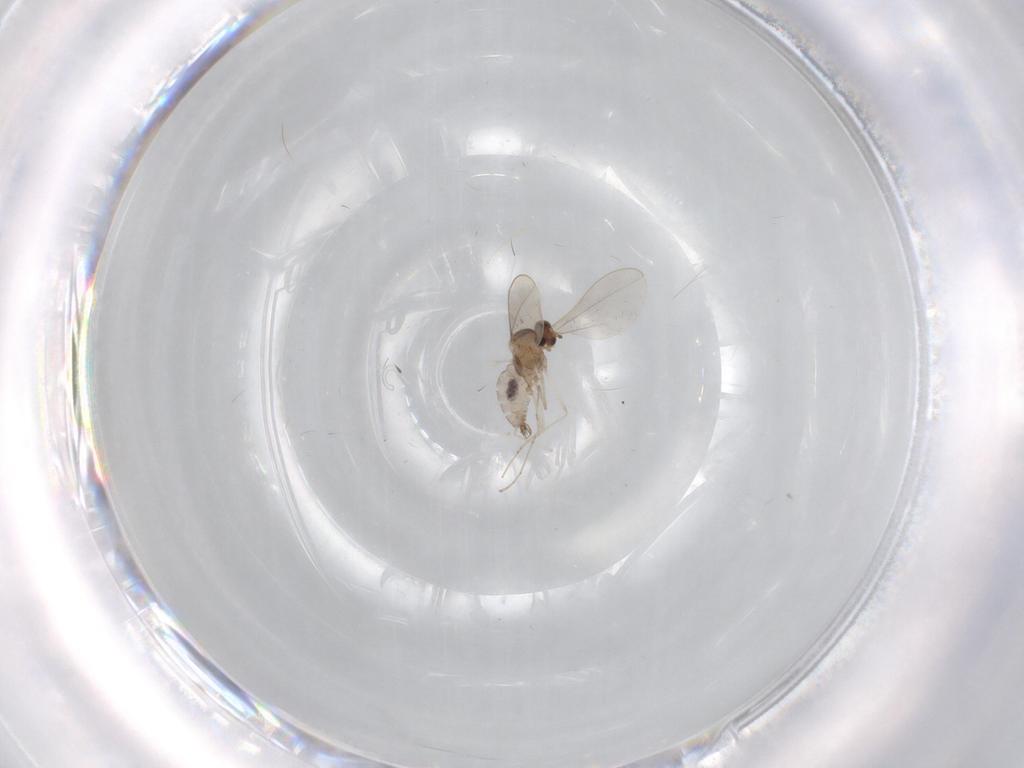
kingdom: Animalia
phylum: Arthropoda
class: Insecta
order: Diptera
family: Cecidomyiidae
